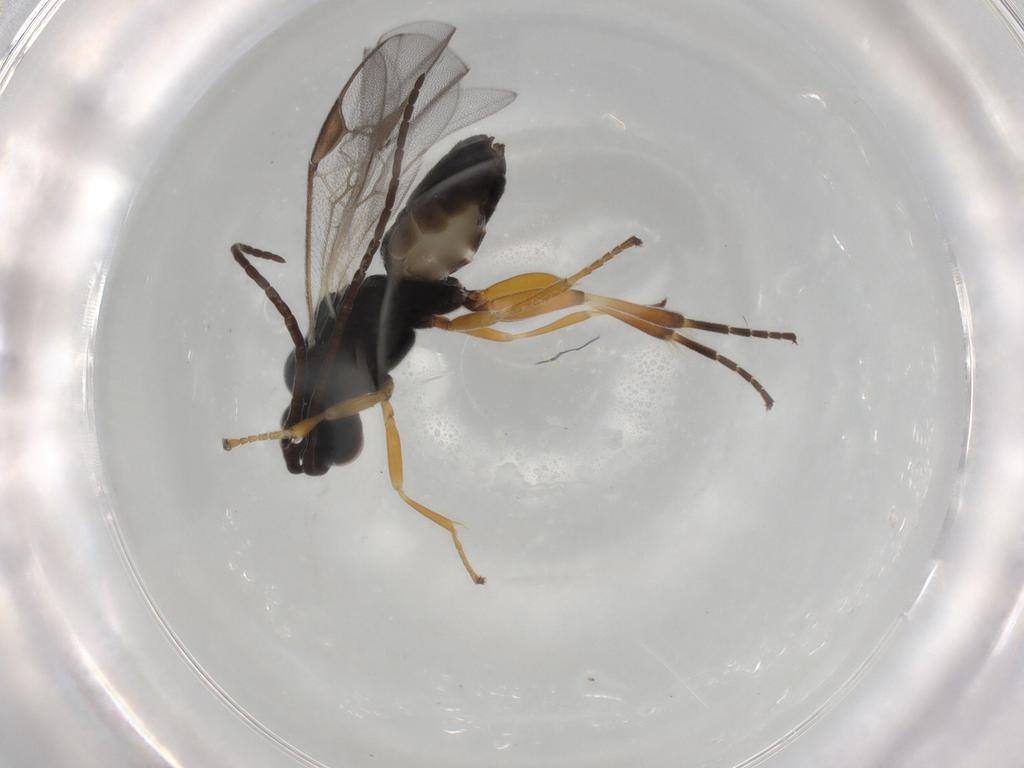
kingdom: Animalia
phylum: Arthropoda
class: Insecta
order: Hymenoptera
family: Braconidae
